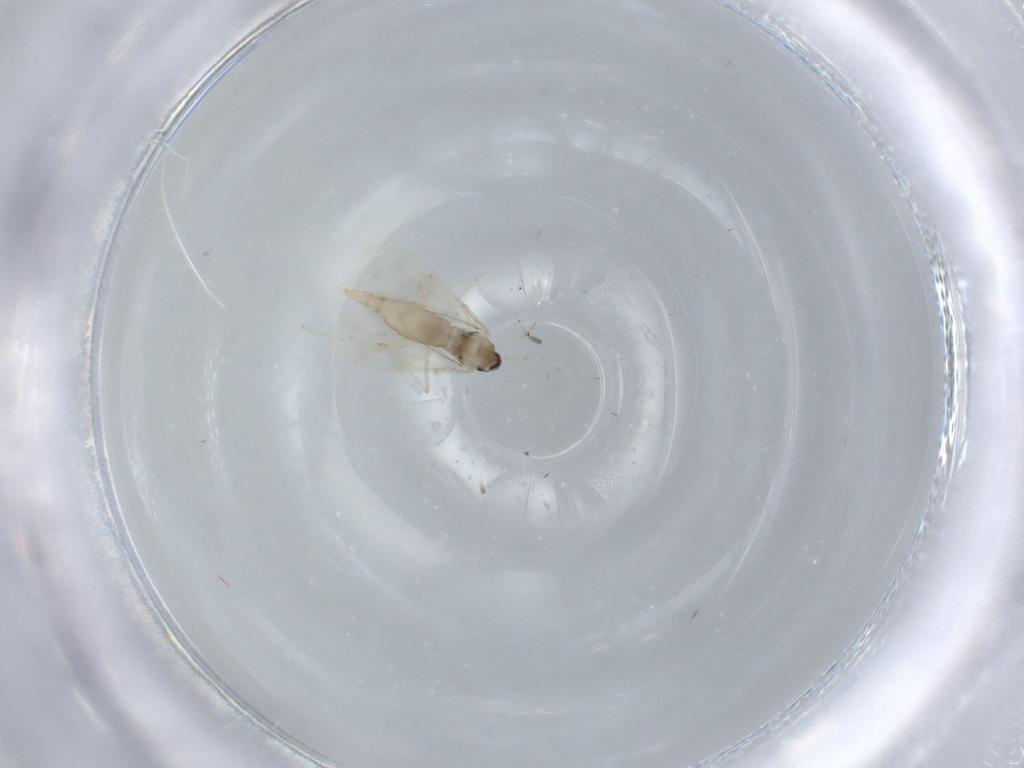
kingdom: Animalia
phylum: Arthropoda
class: Insecta
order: Diptera
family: Cecidomyiidae
